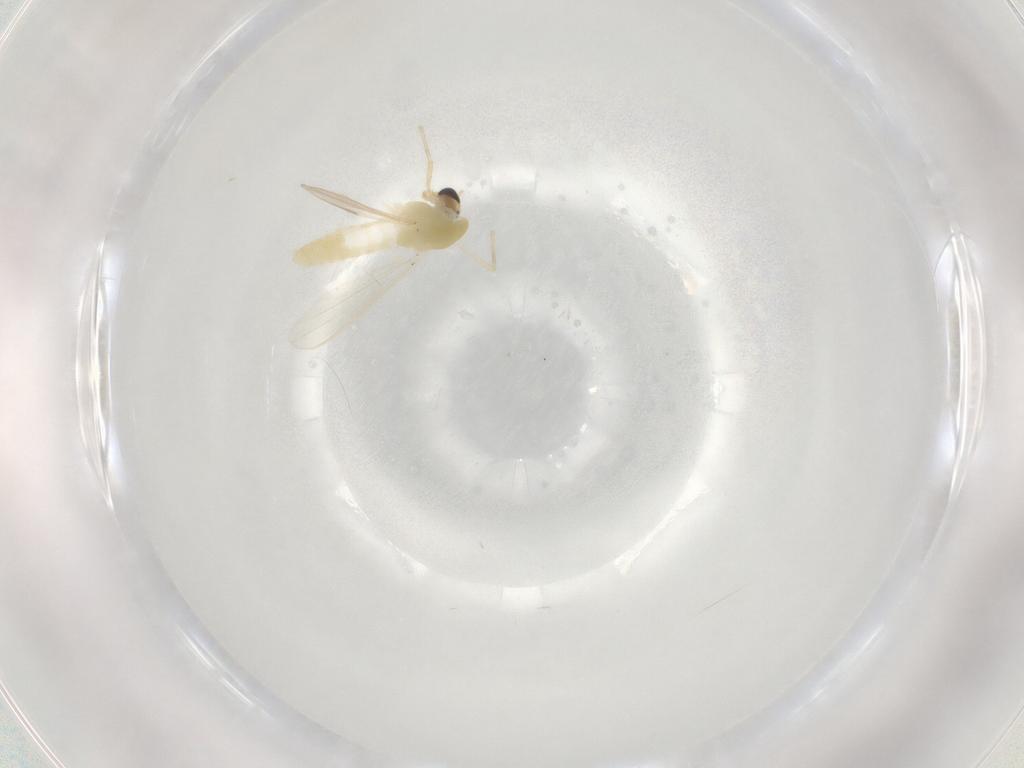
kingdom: Animalia
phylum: Arthropoda
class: Insecta
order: Diptera
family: Chironomidae
